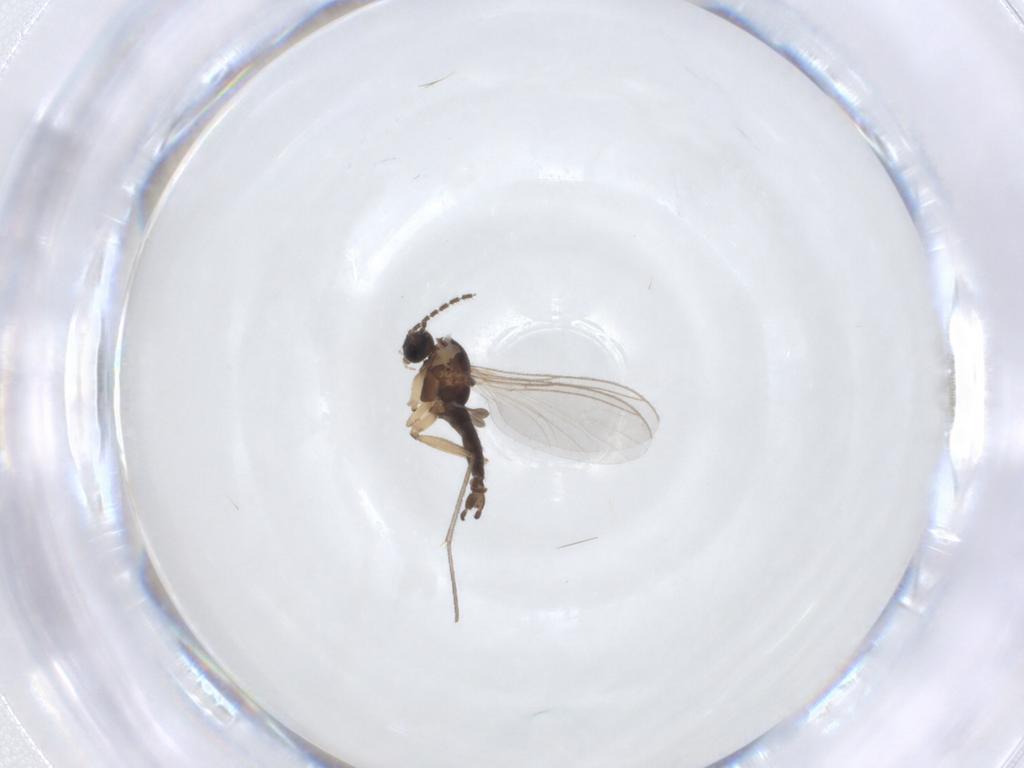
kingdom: Animalia
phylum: Arthropoda
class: Insecta
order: Diptera
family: Sciaridae
